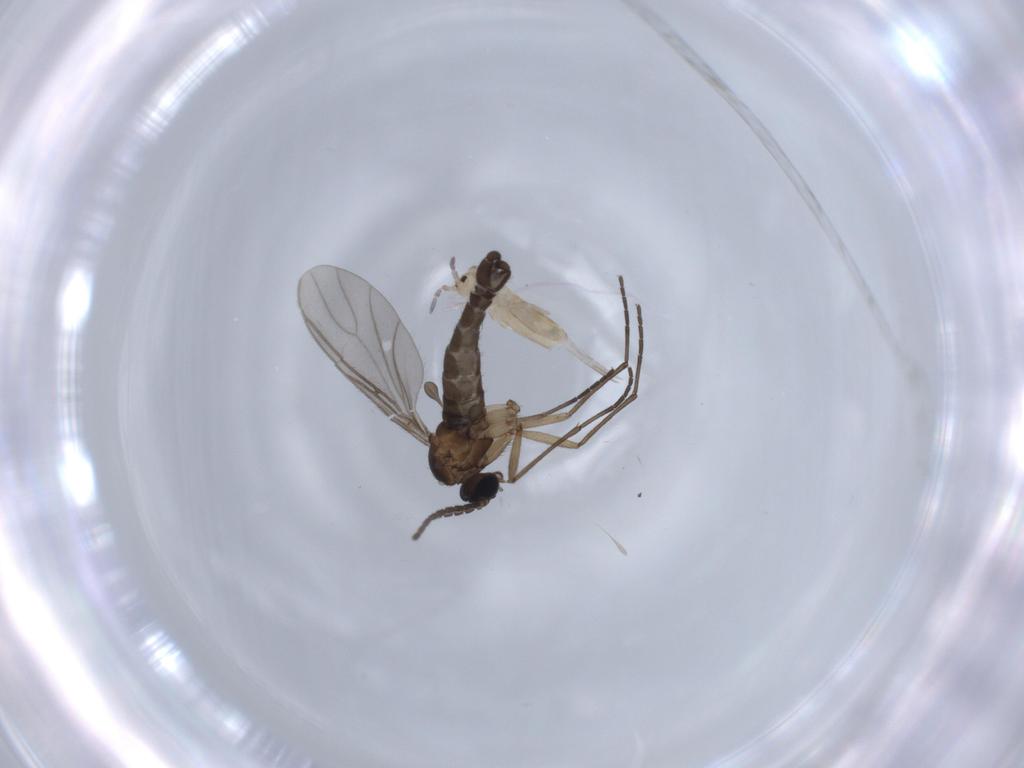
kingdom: Animalia
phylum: Arthropoda
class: Insecta
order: Diptera
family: Sciaridae
